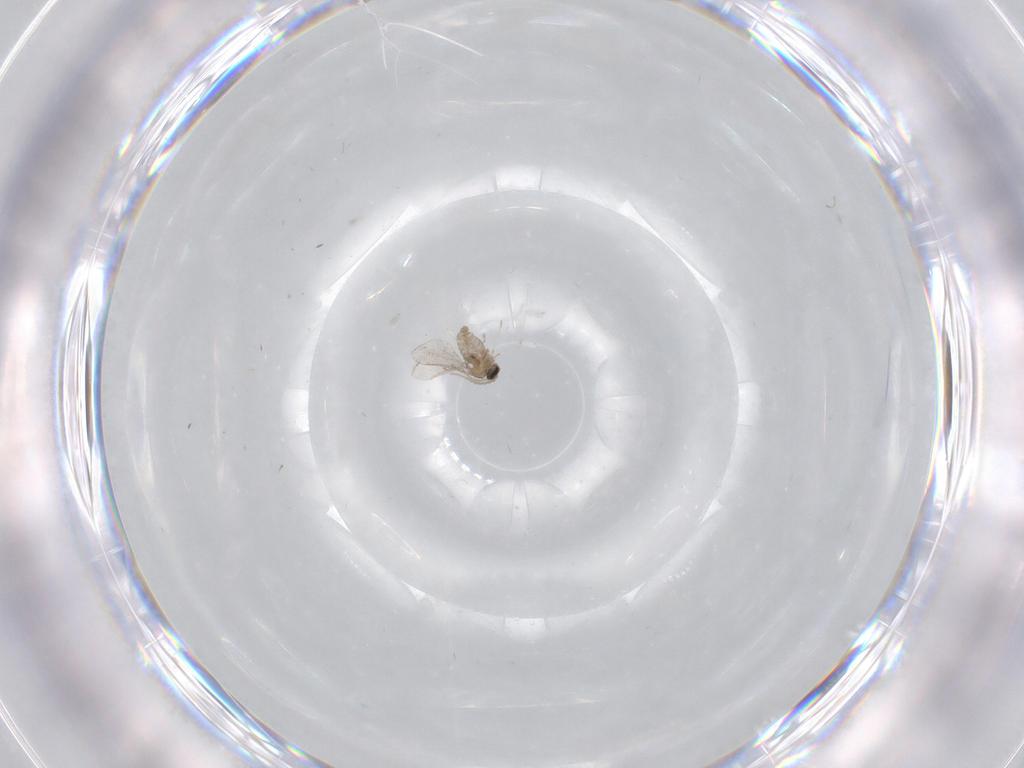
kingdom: Animalia
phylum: Arthropoda
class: Insecta
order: Diptera
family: Cecidomyiidae
